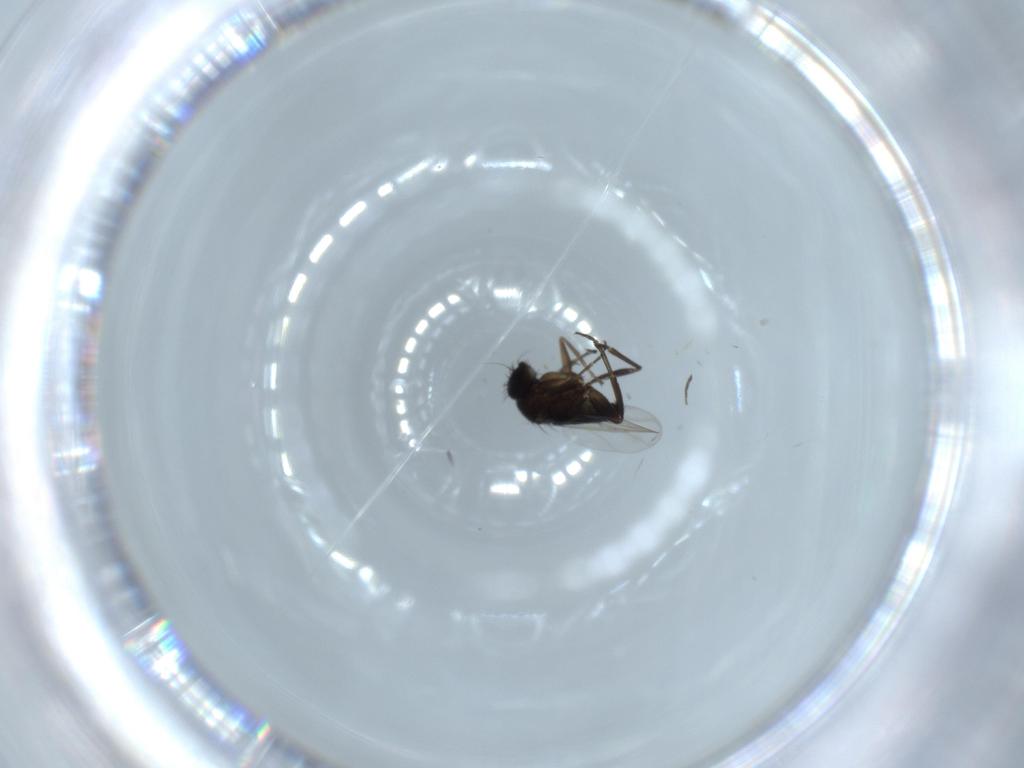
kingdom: Animalia
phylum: Arthropoda
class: Insecta
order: Diptera
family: Phoridae
